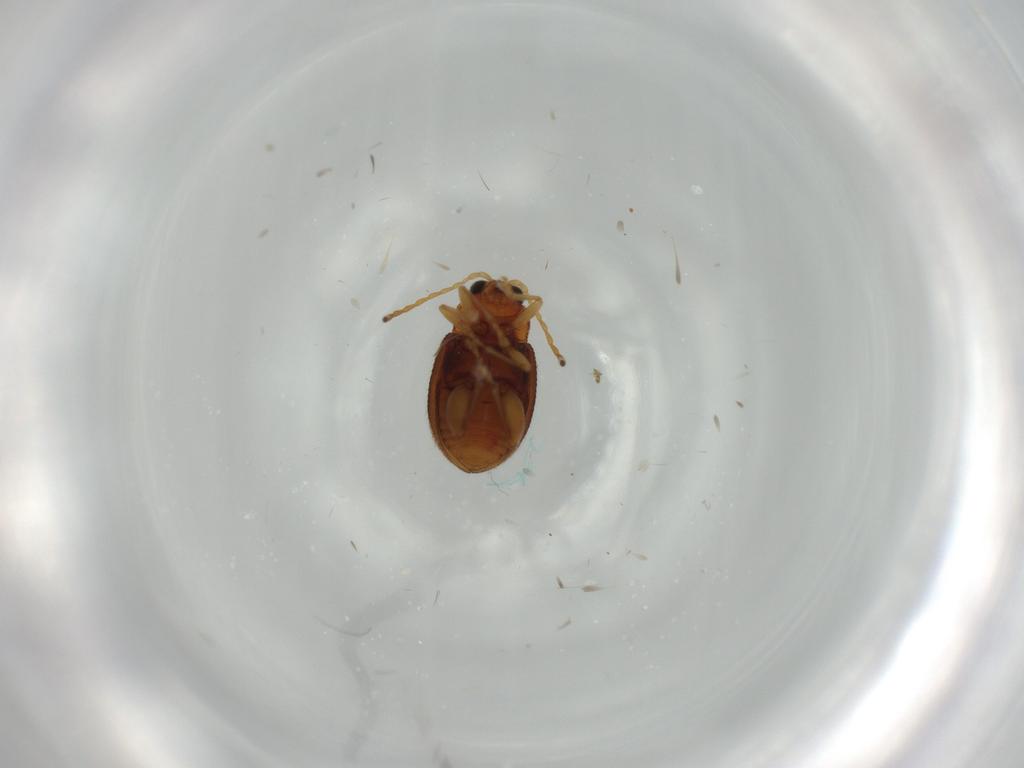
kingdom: Animalia
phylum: Arthropoda
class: Insecta
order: Coleoptera
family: Chrysomelidae
